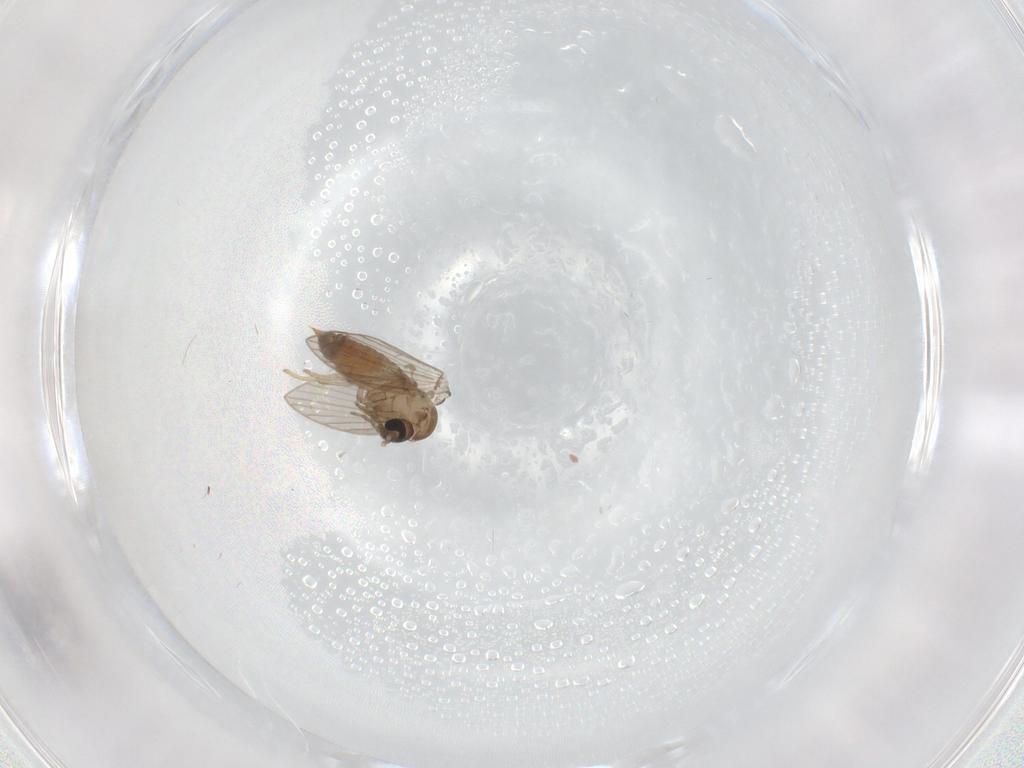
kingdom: Animalia
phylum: Arthropoda
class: Insecta
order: Diptera
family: Psychodidae
